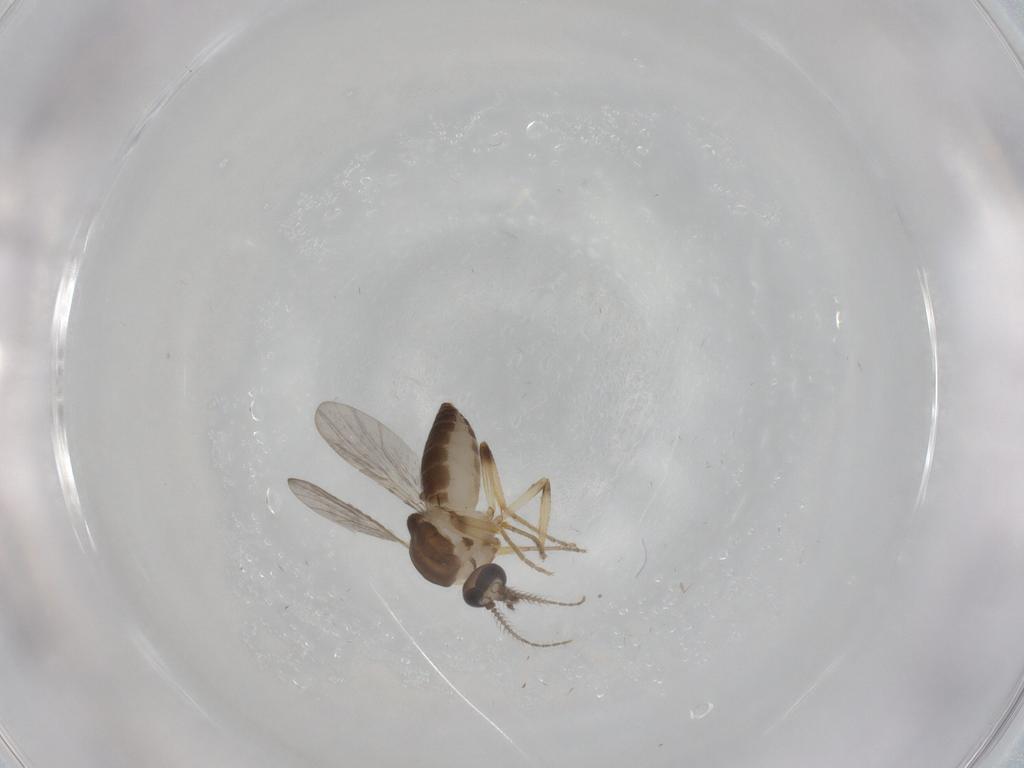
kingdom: Animalia
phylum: Arthropoda
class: Insecta
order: Diptera
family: Ceratopogonidae
